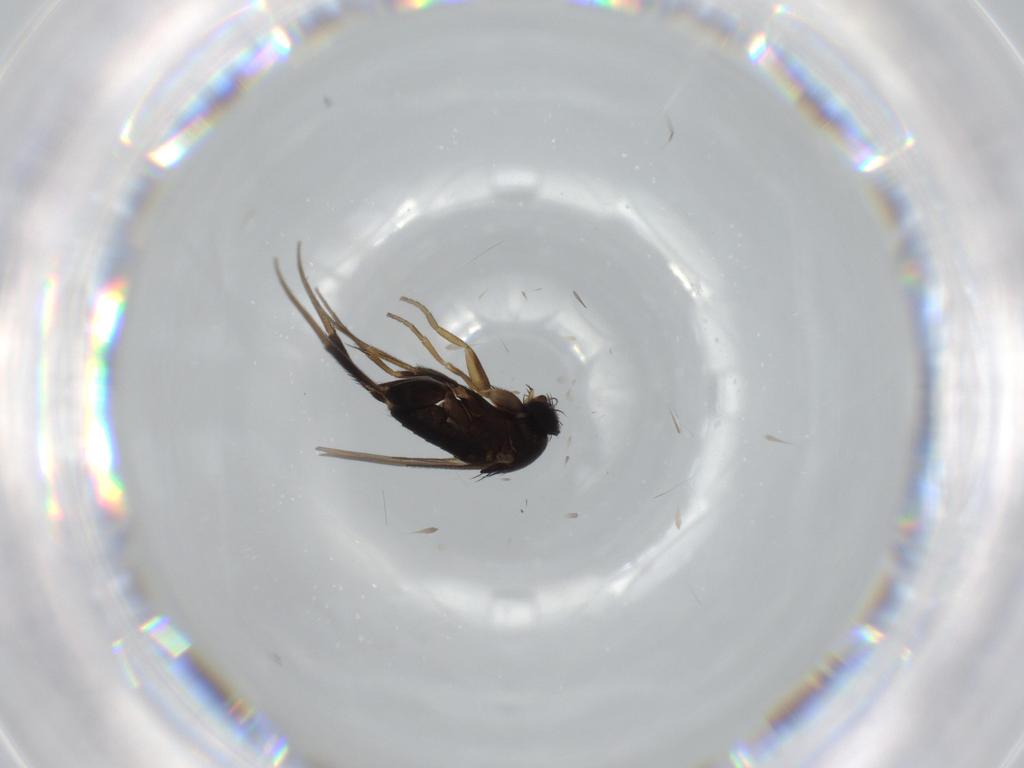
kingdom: Animalia
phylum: Arthropoda
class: Insecta
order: Diptera
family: Phoridae
